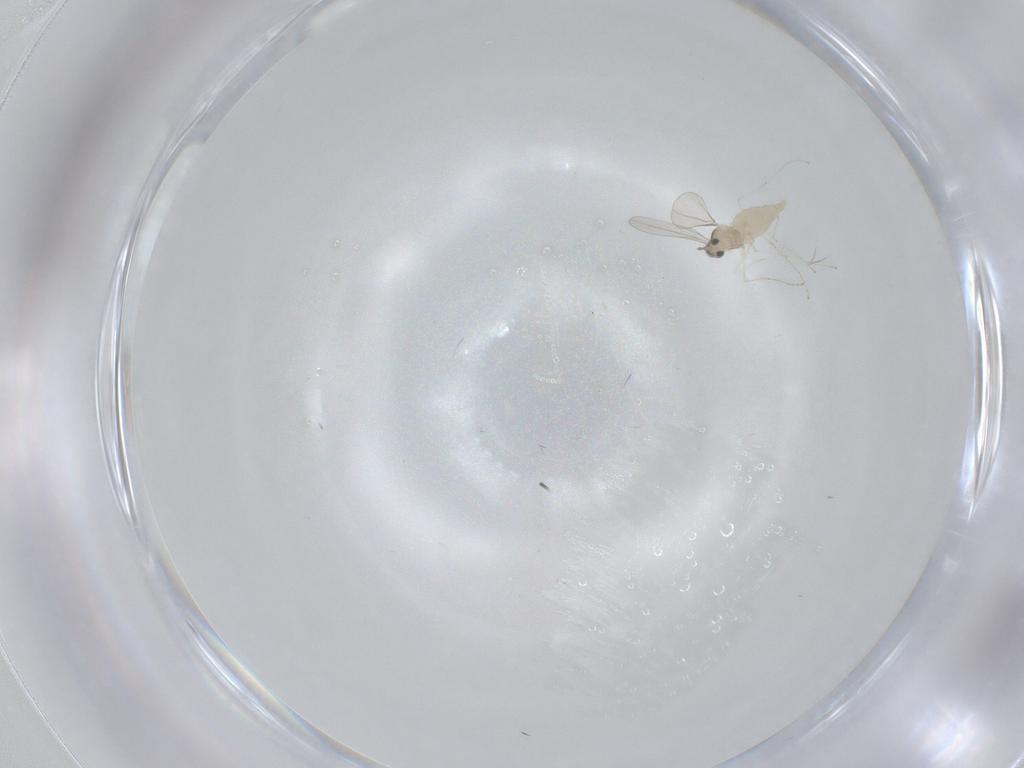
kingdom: Animalia
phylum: Arthropoda
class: Insecta
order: Diptera
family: Cecidomyiidae
